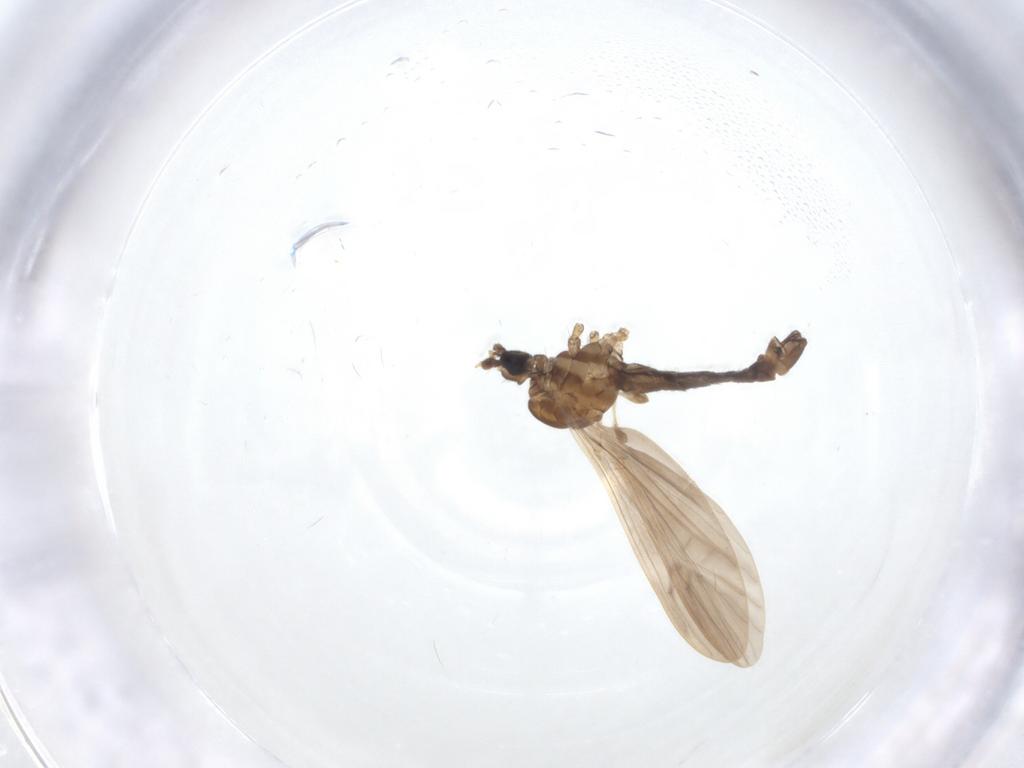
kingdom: Animalia
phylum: Arthropoda
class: Insecta
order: Diptera
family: Limoniidae
